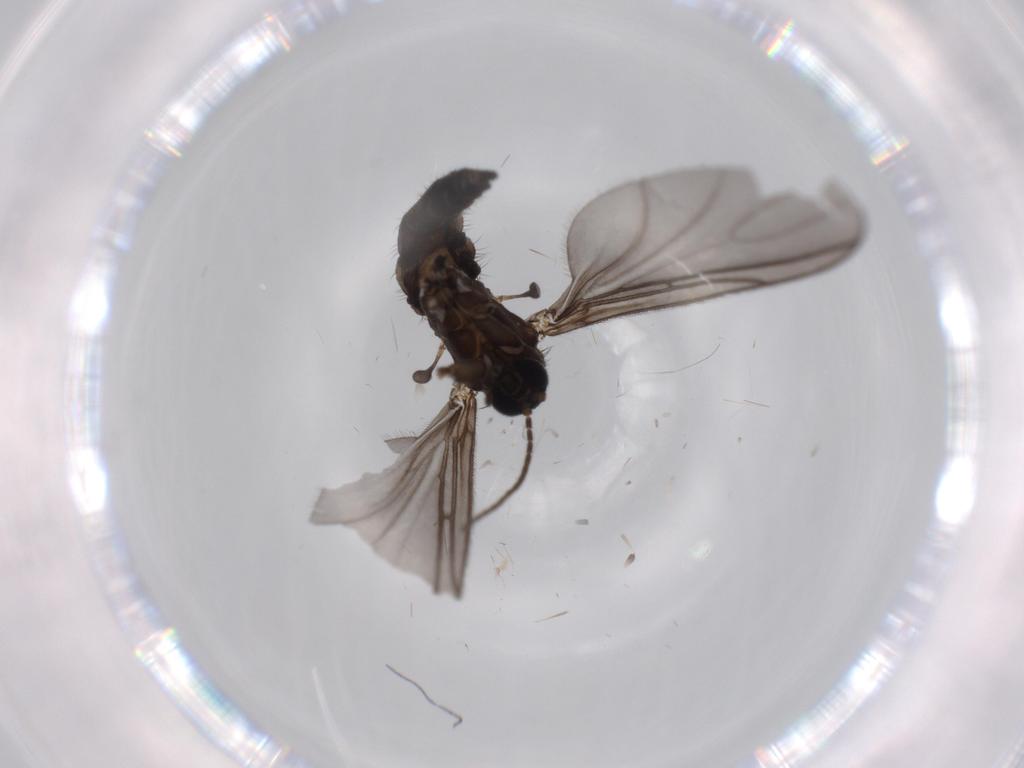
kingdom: Animalia
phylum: Arthropoda
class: Insecta
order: Diptera
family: Sciaridae
